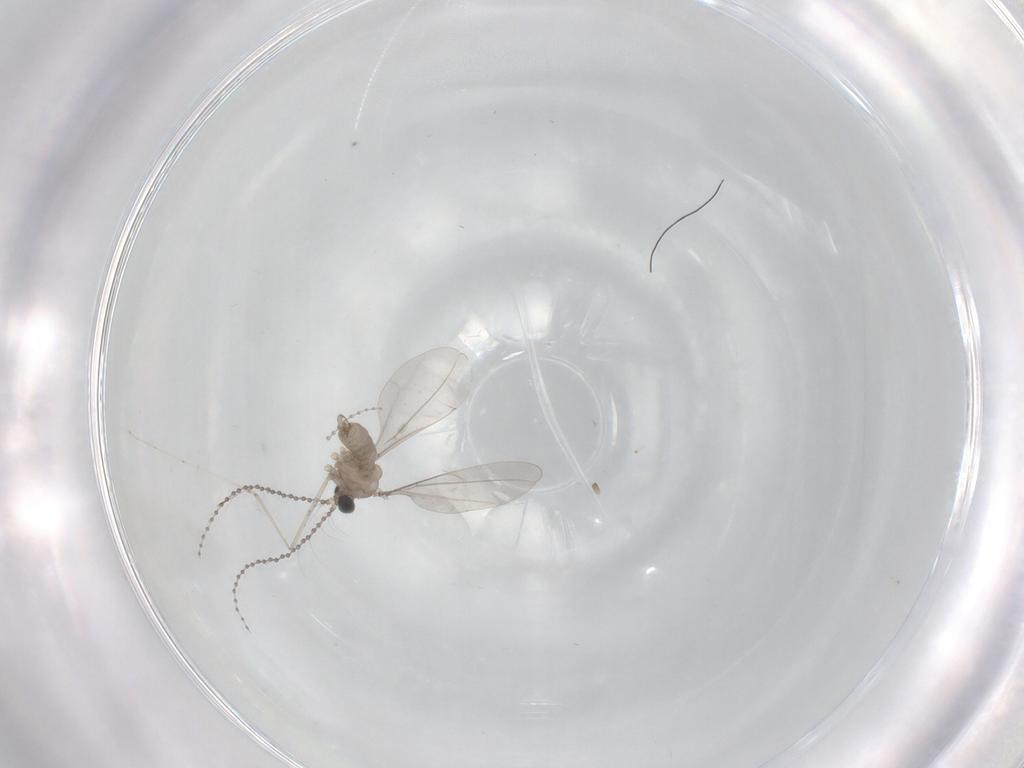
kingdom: Animalia
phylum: Arthropoda
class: Insecta
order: Diptera
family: Cecidomyiidae
